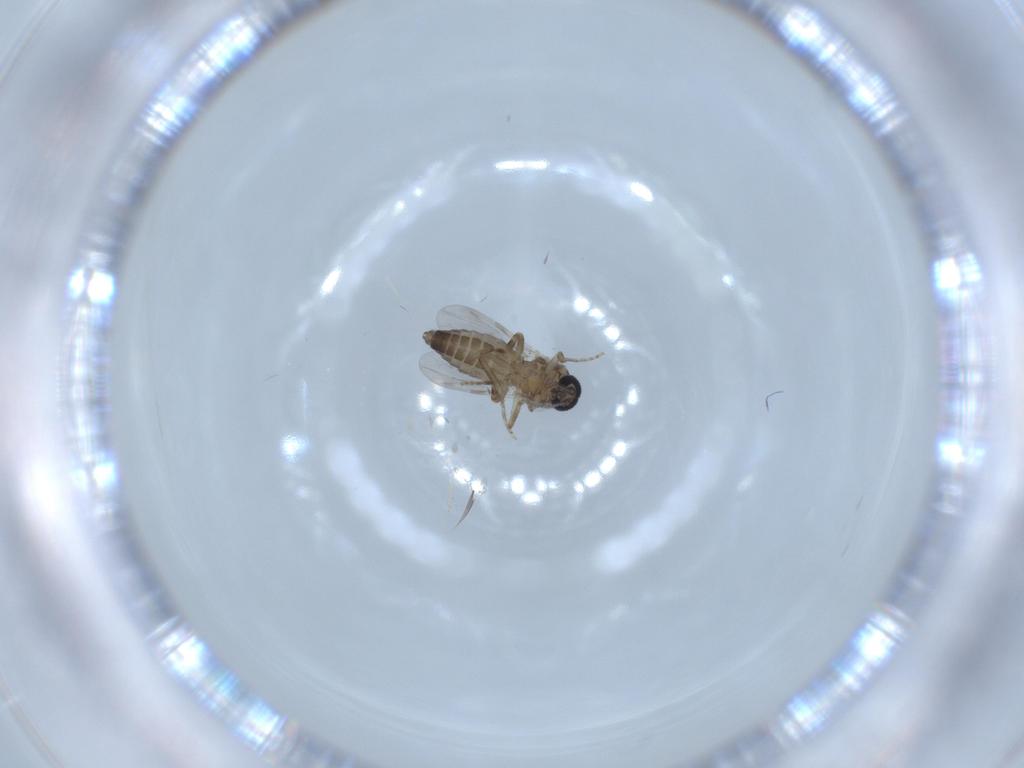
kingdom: Animalia
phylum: Arthropoda
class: Insecta
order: Diptera
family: Ceratopogonidae
